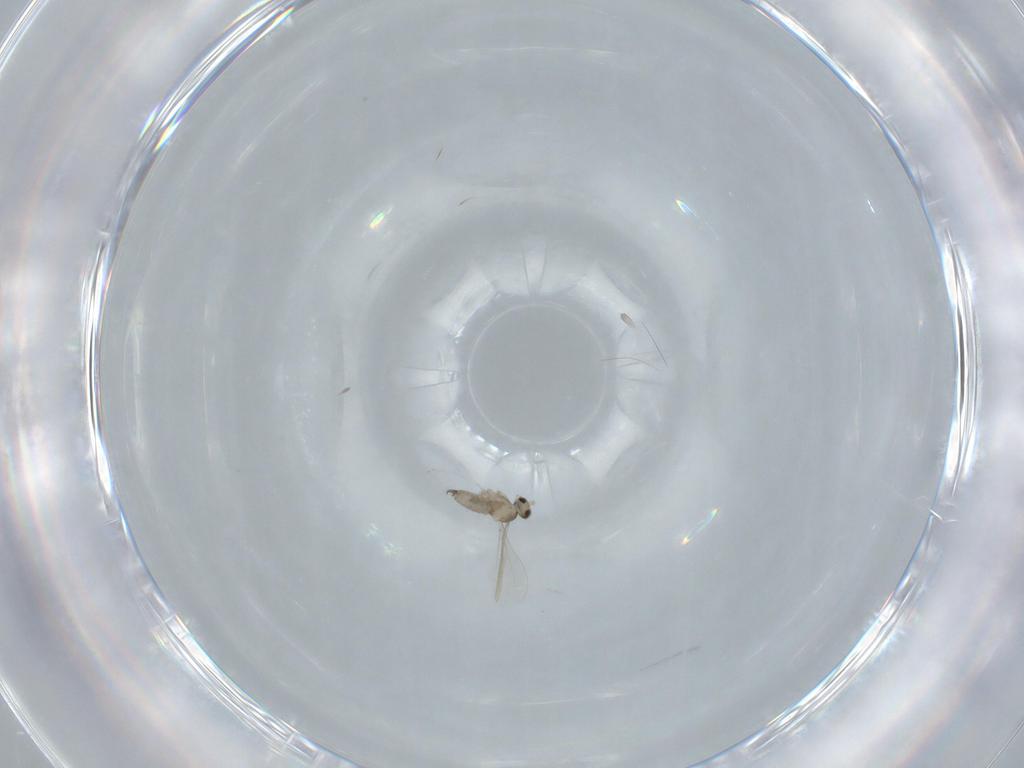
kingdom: Animalia
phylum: Arthropoda
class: Insecta
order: Diptera
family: Cecidomyiidae
